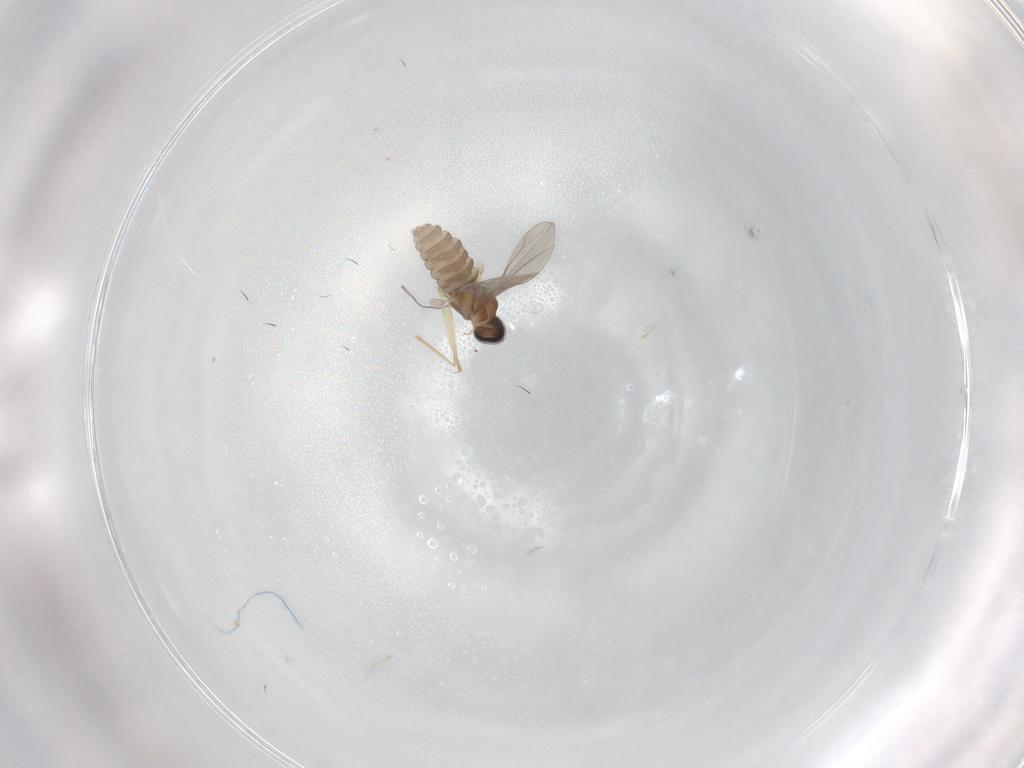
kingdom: Animalia
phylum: Arthropoda
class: Insecta
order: Diptera
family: Cecidomyiidae
